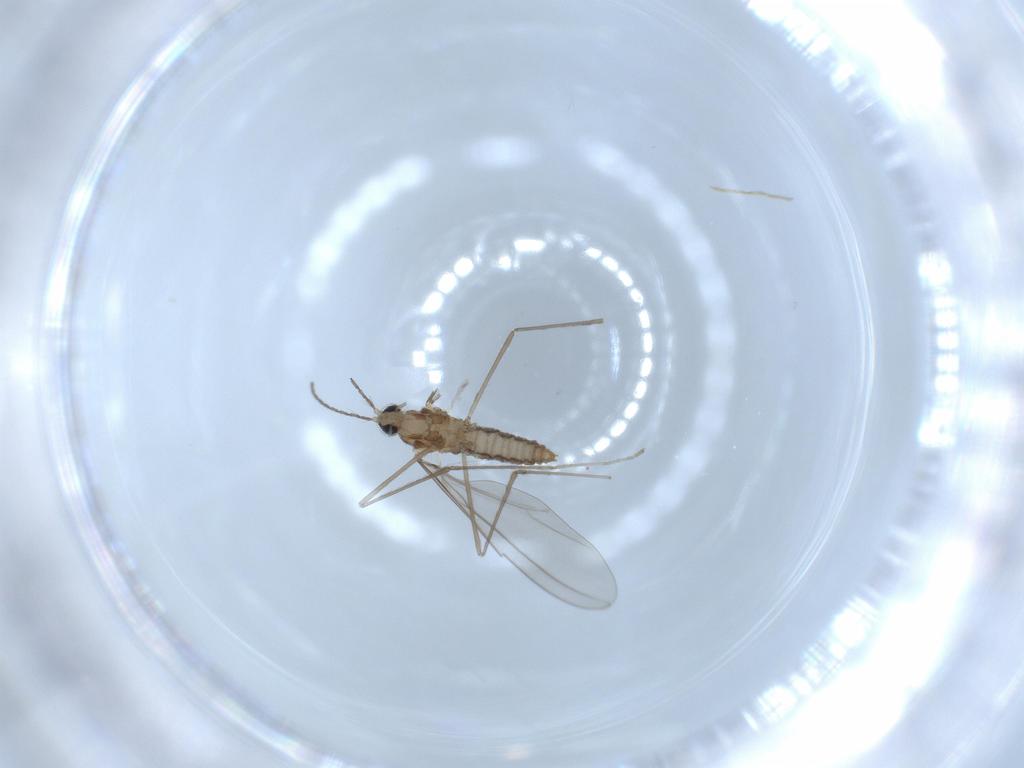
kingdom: Animalia
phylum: Arthropoda
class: Insecta
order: Diptera
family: Cecidomyiidae
